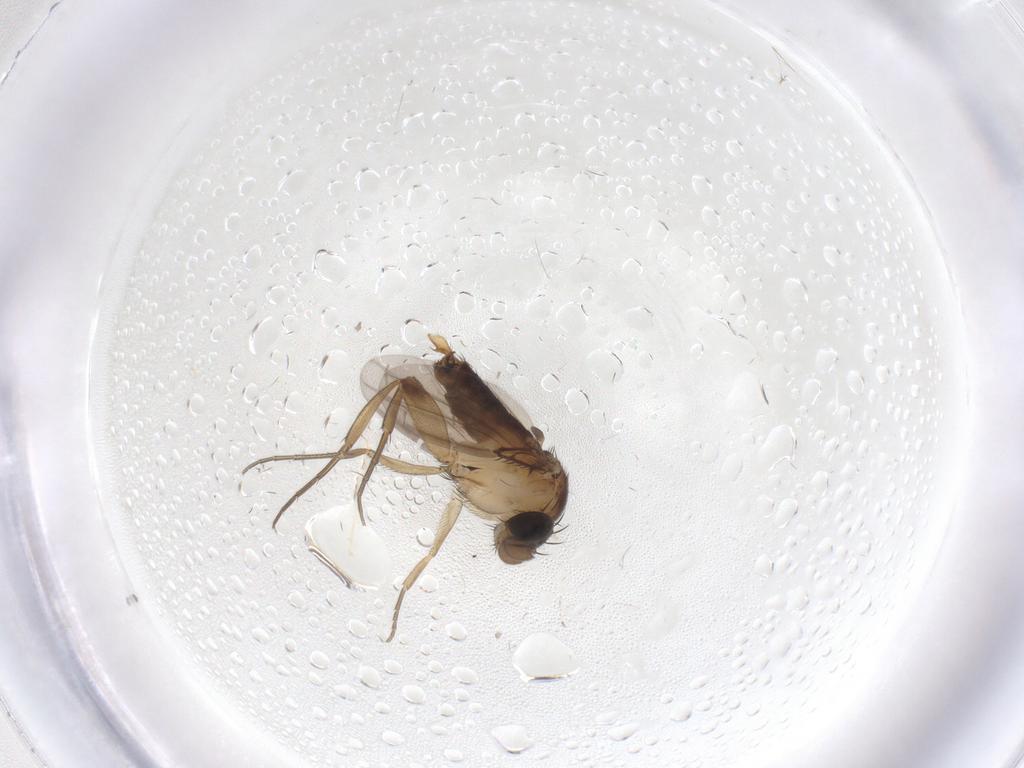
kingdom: Animalia
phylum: Arthropoda
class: Insecta
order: Diptera
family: Phoridae
